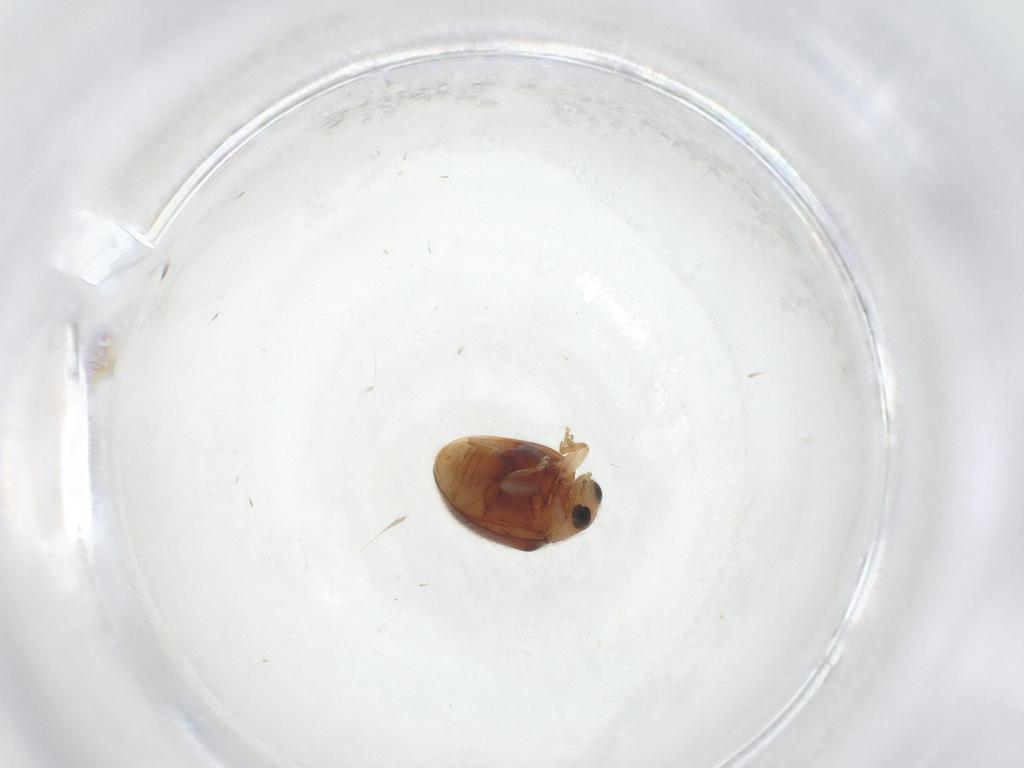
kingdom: Animalia
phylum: Arthropoda
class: Insecta
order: Coleoptera
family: Coccinellidae
